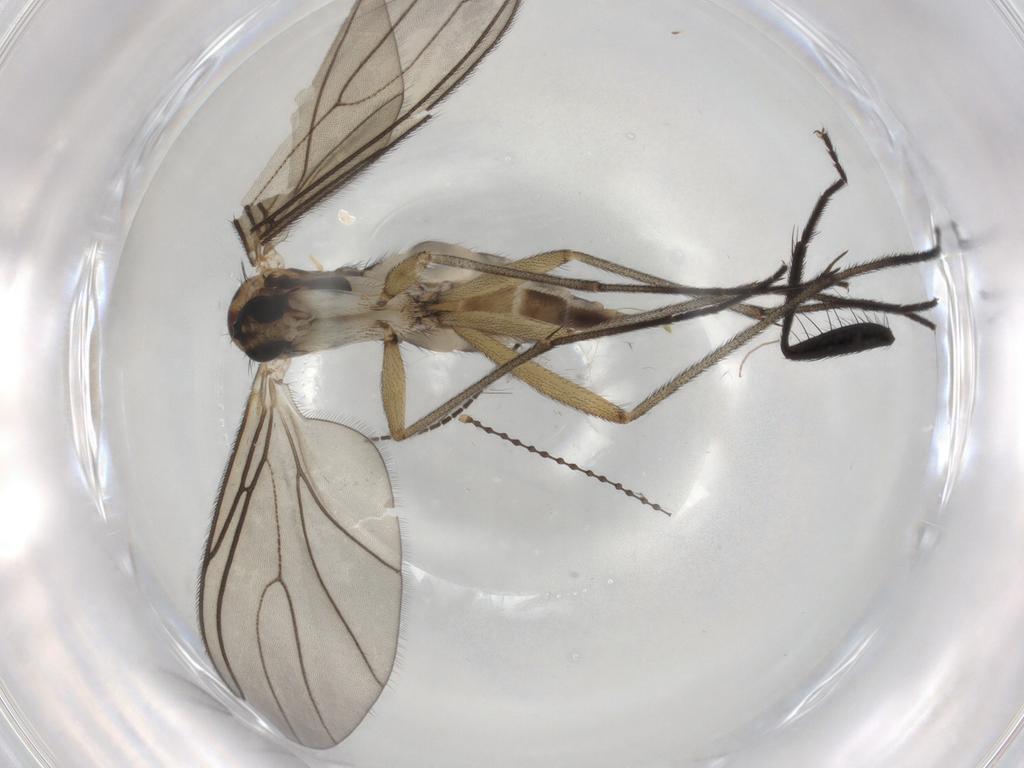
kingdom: Animalia
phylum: Arthropoda
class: Insecta
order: Diptera
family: Sciaridae
